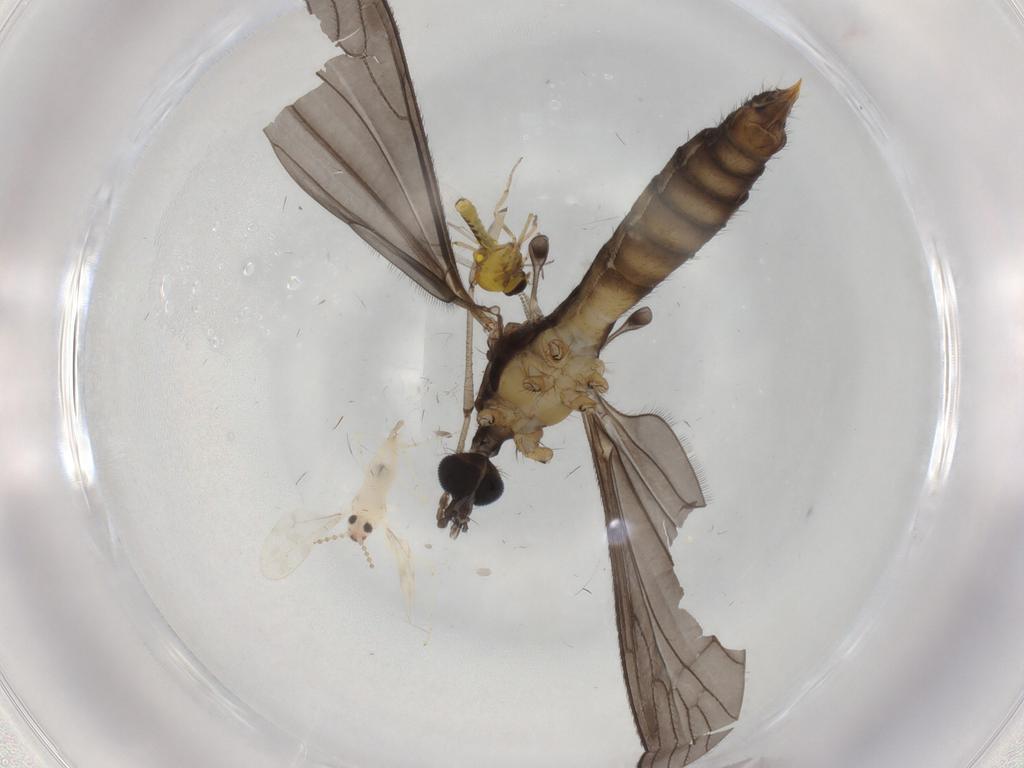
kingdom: Animalia
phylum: Arthropoda
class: Insecta
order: Diptera
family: Limoniidae
